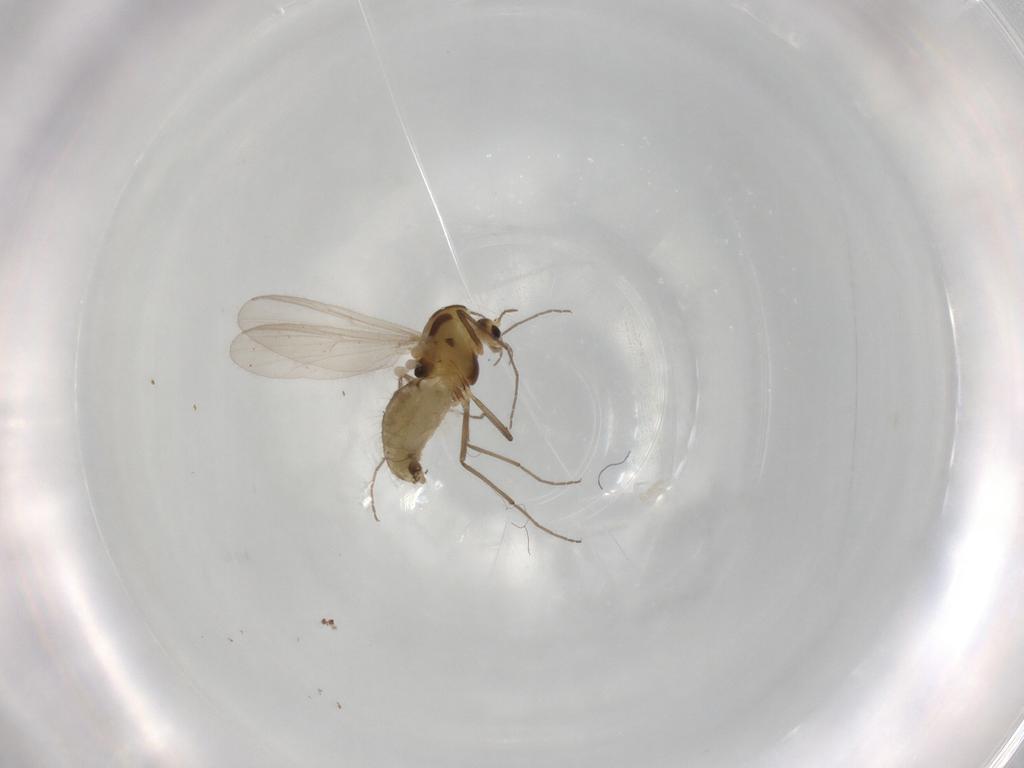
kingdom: Animalia
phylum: Arthropoda
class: Insecta
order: Diptera
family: Chironomidae
